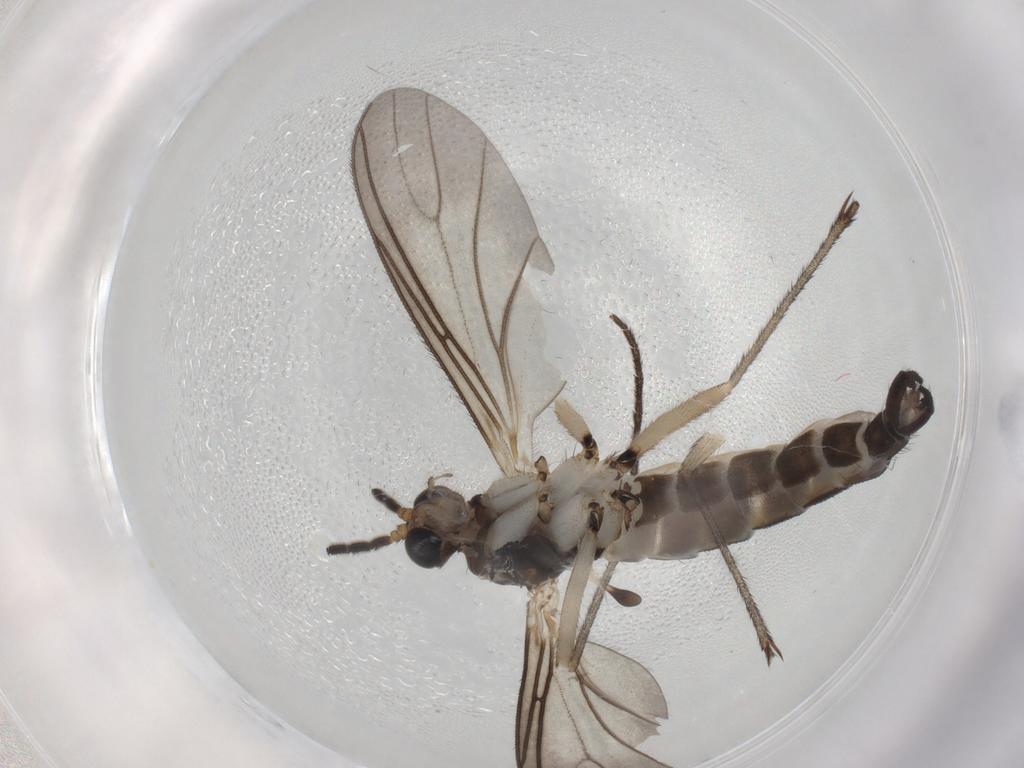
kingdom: Animalia
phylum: Arthropoda
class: Insecta
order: Diptera
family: Sciaridae
